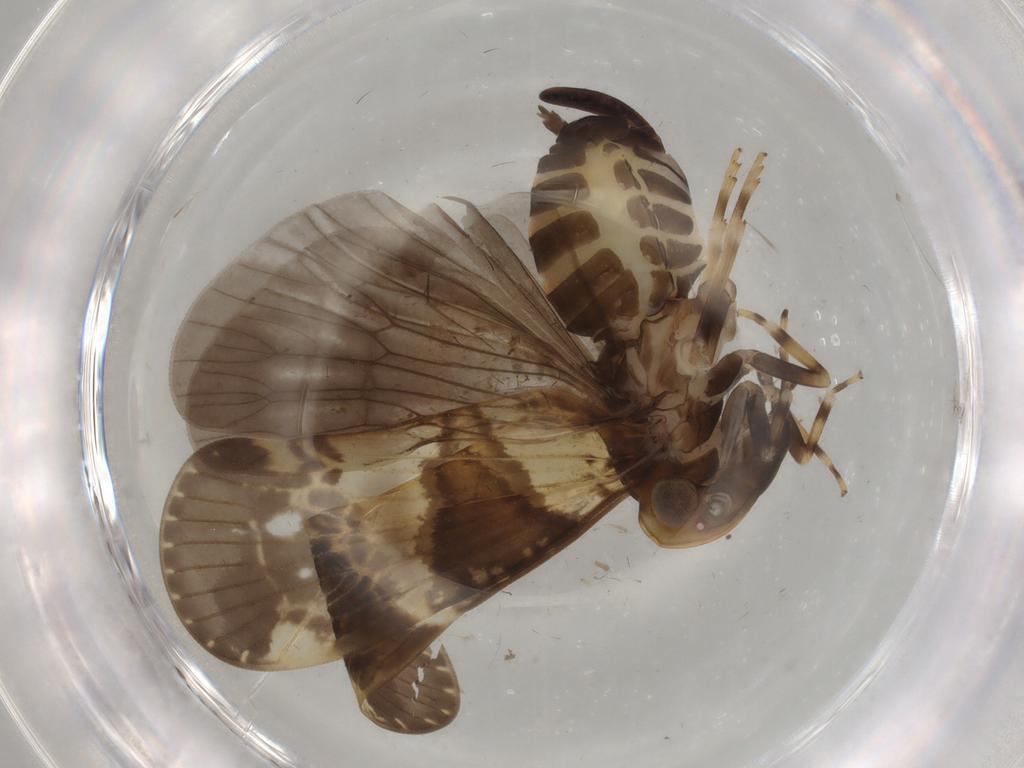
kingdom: Animalia
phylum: Arthropoda
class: Insecta
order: Hemiptera
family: Cixiidae
